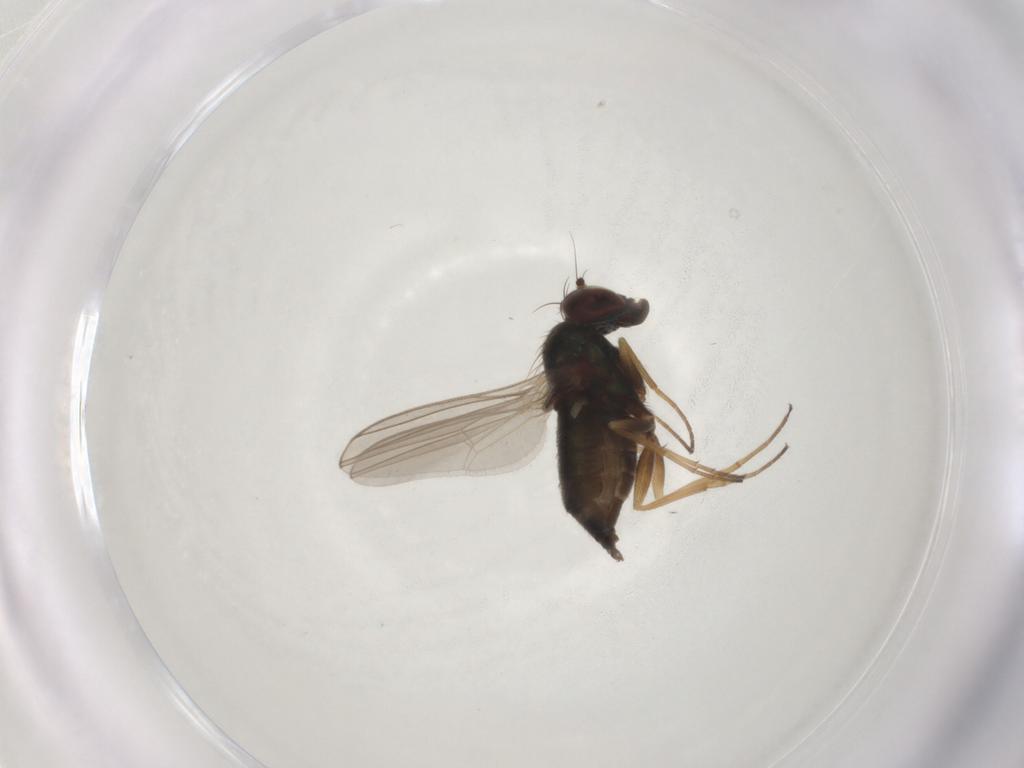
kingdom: Animalia
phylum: Arthropoda
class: Insecta
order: Diptera
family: Dolichopodidae
